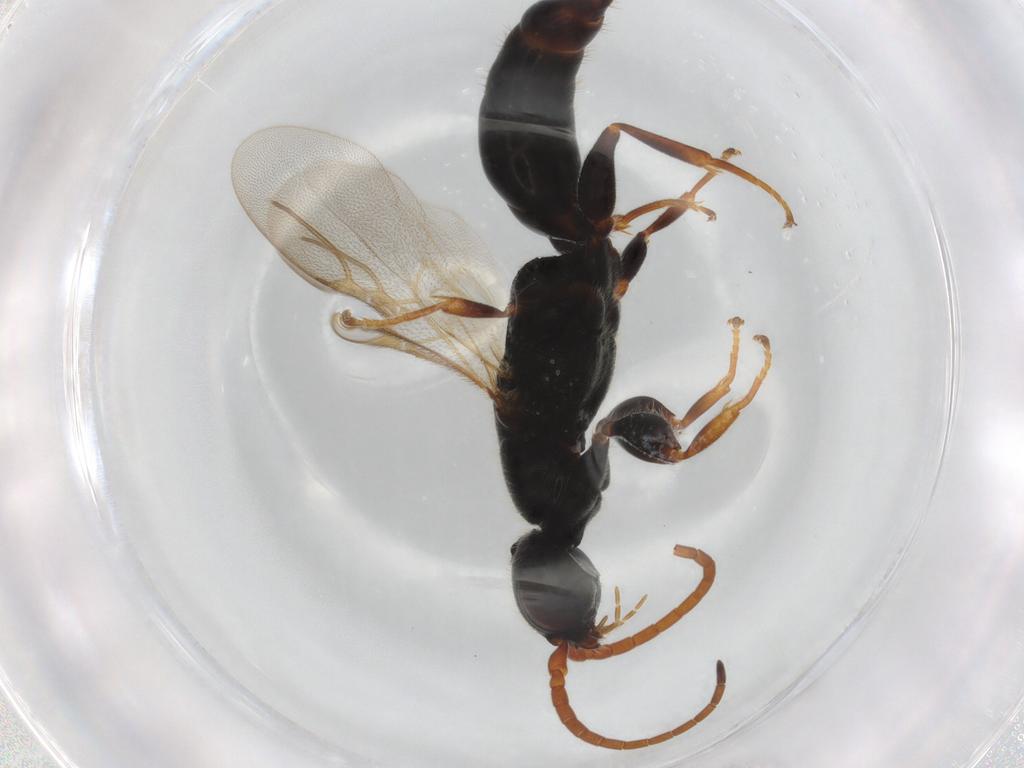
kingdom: Animalia
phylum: Arthropoda
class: Insecta
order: Hymenoptera
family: Bethylidae
